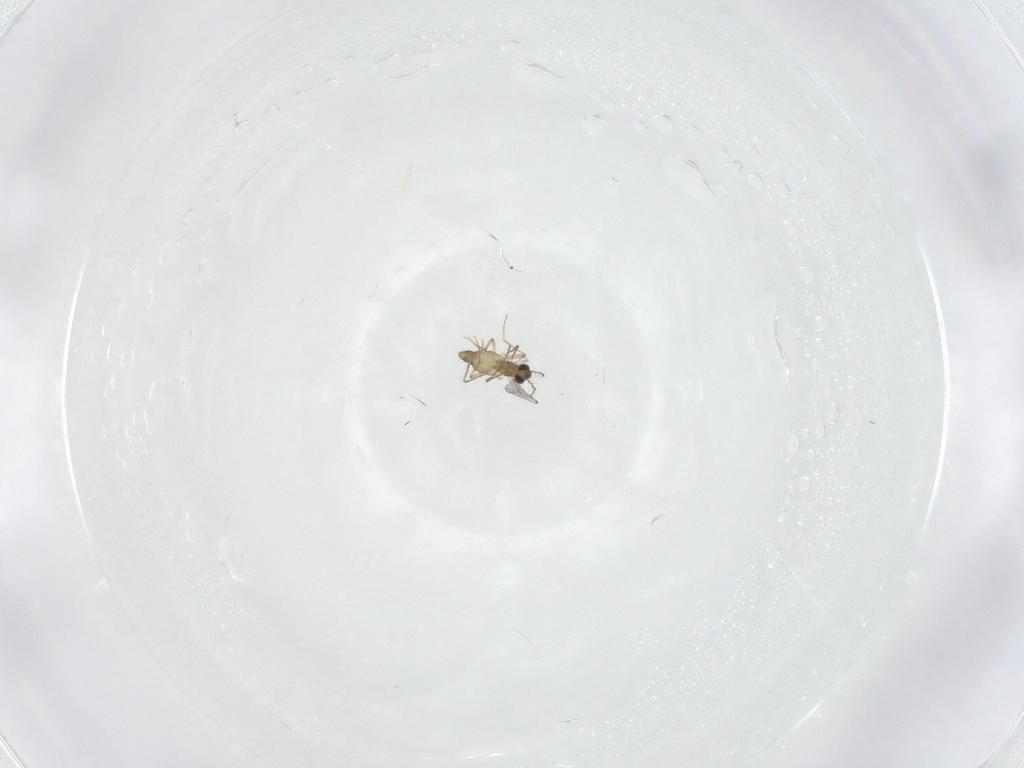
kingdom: Animalia
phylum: Arthropoda
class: Insecta
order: Diptera
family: Chironomidae
